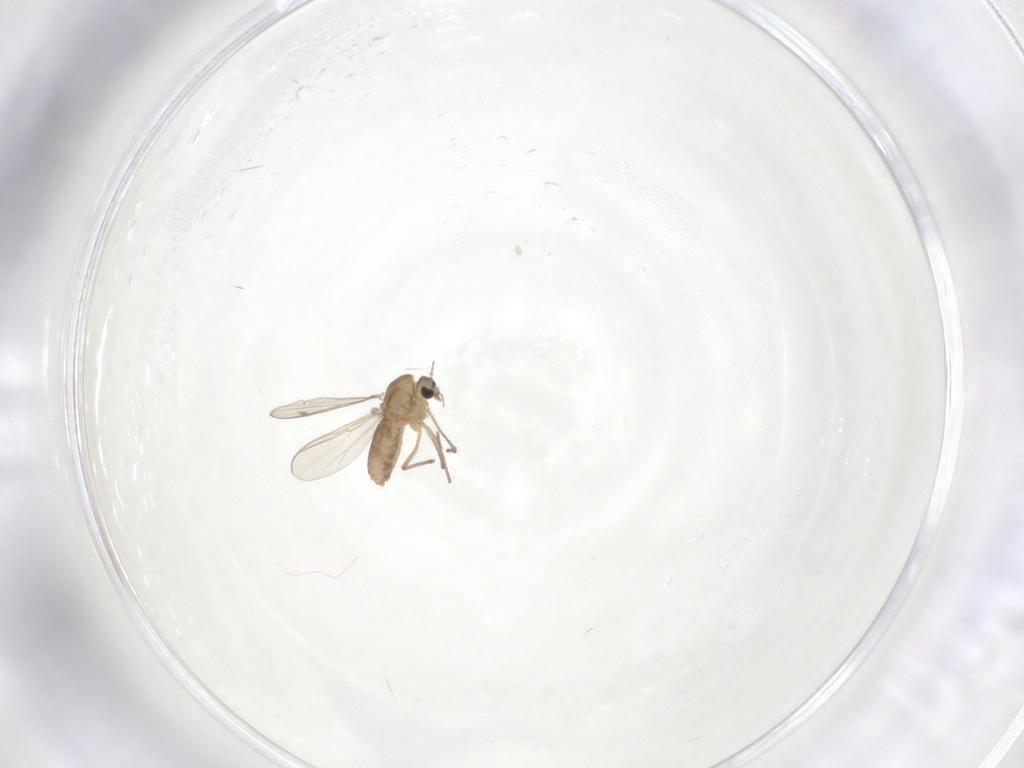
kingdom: Animalia
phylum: Arthropoda
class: Insecta
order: Diptera
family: Chironomidae
